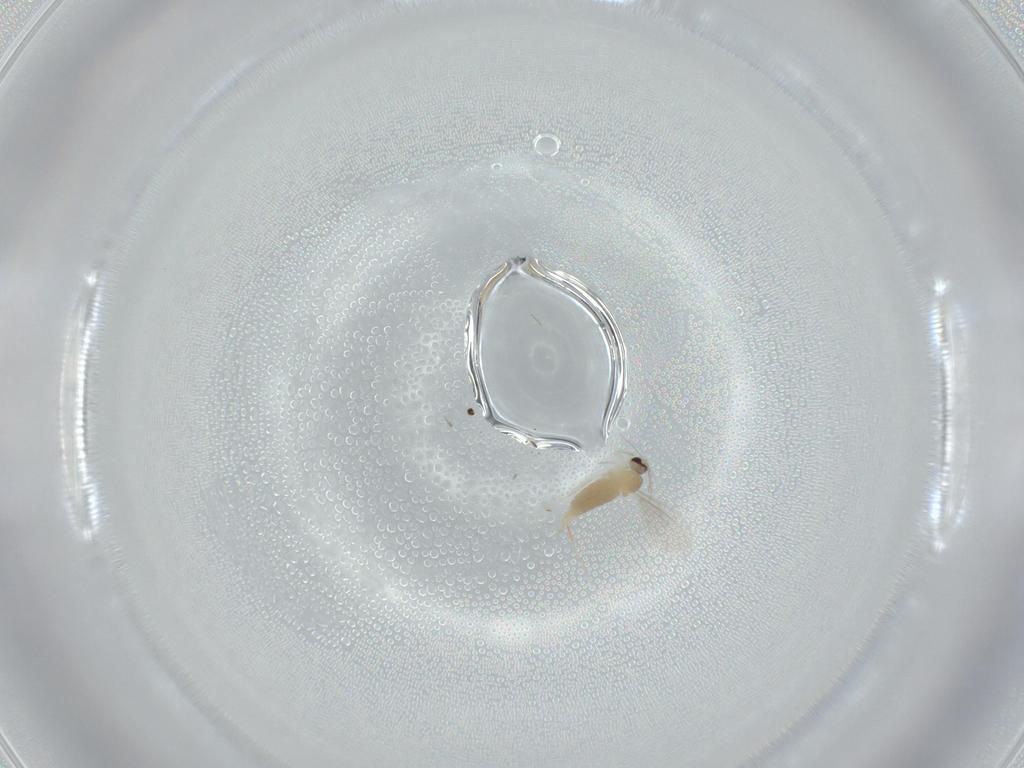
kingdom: Animalia
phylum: Arthropoda
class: Insecta
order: Diptera
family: Cecidomyiidae
